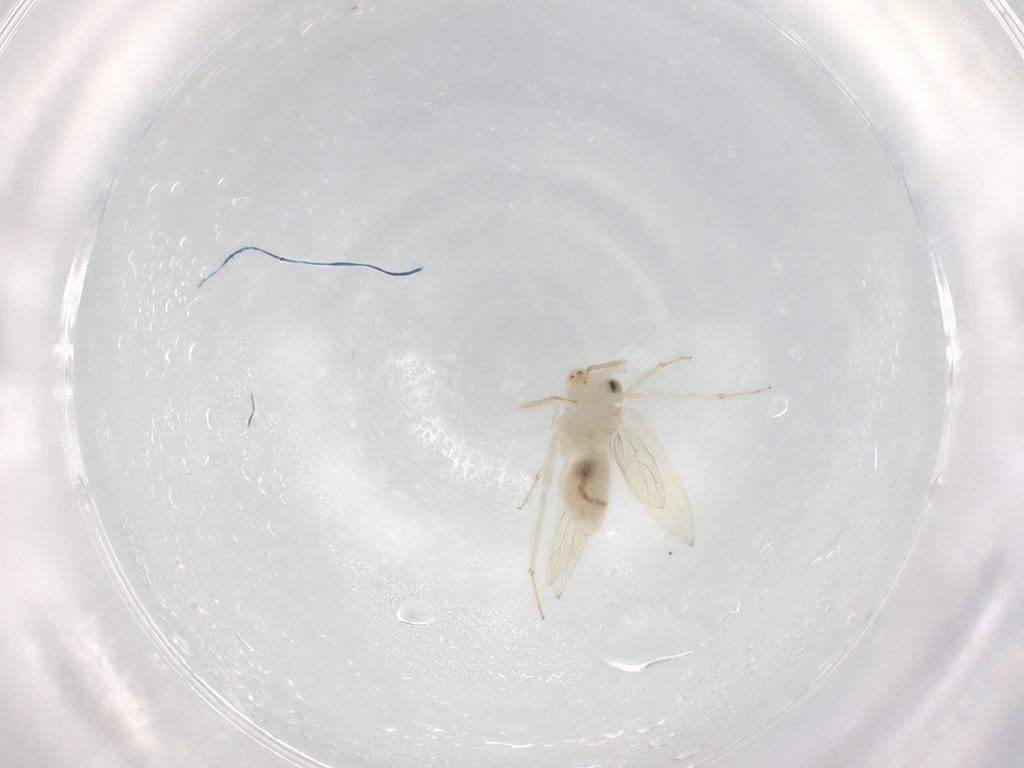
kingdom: Animalia
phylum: Arthropoda
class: Insecta
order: Psocodea
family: Lepidopsocidae
